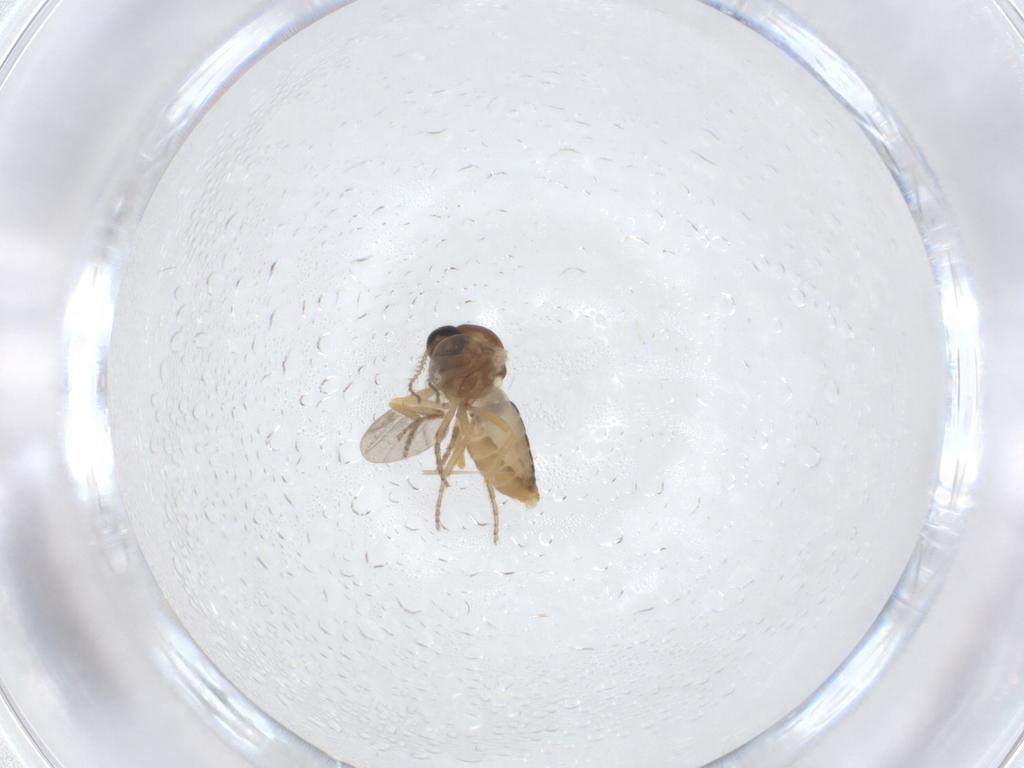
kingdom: Animalia
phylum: Arthropoda
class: Insecta
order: Diptera
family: Ceratopogonidae
